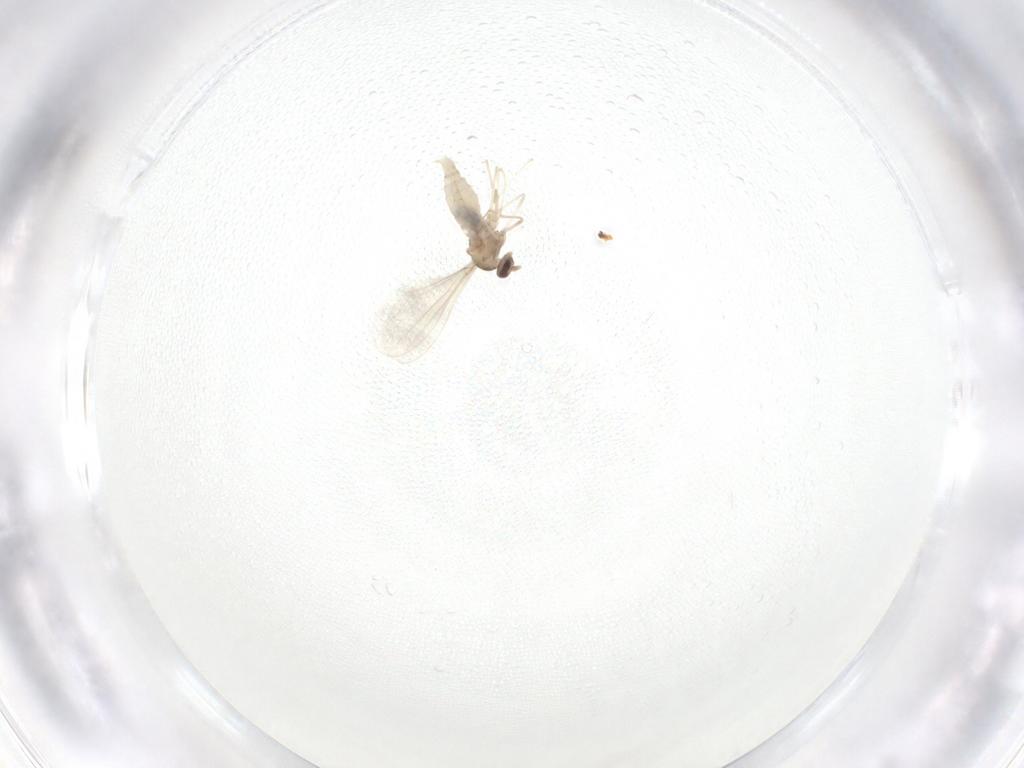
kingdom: Animalia
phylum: Arthropoda
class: Insecta
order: Diptera
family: Cecidomyiidae
